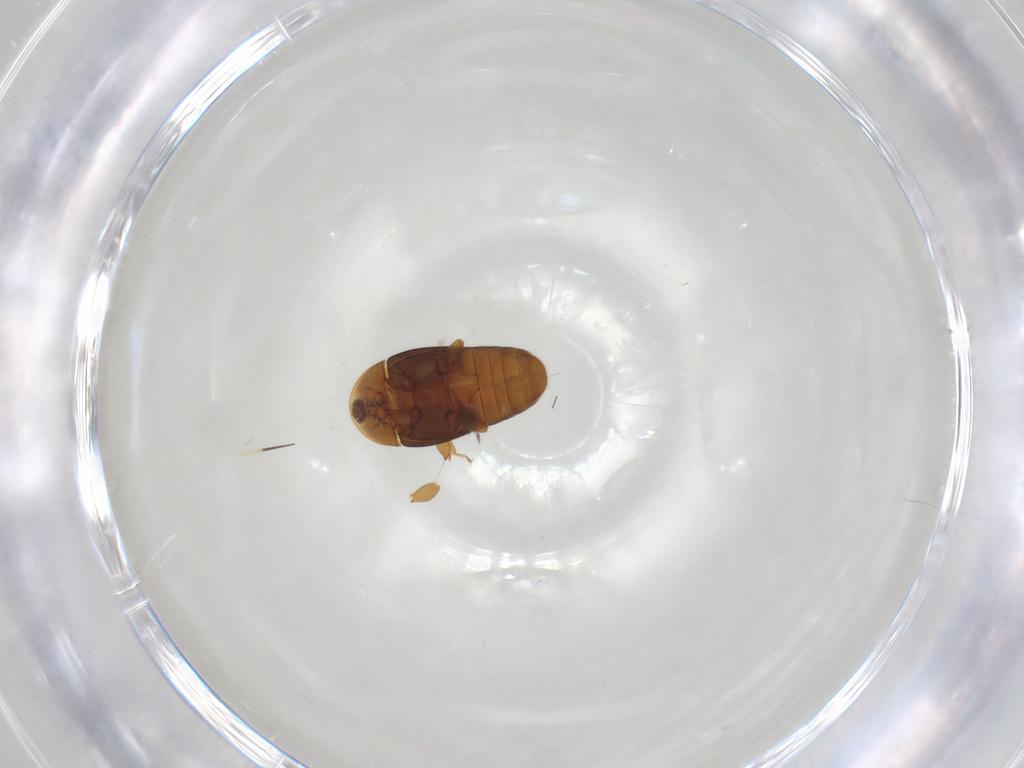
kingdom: Animalia
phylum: Arthropoda
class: Insecta
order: Coleoptera
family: Corylophidae
